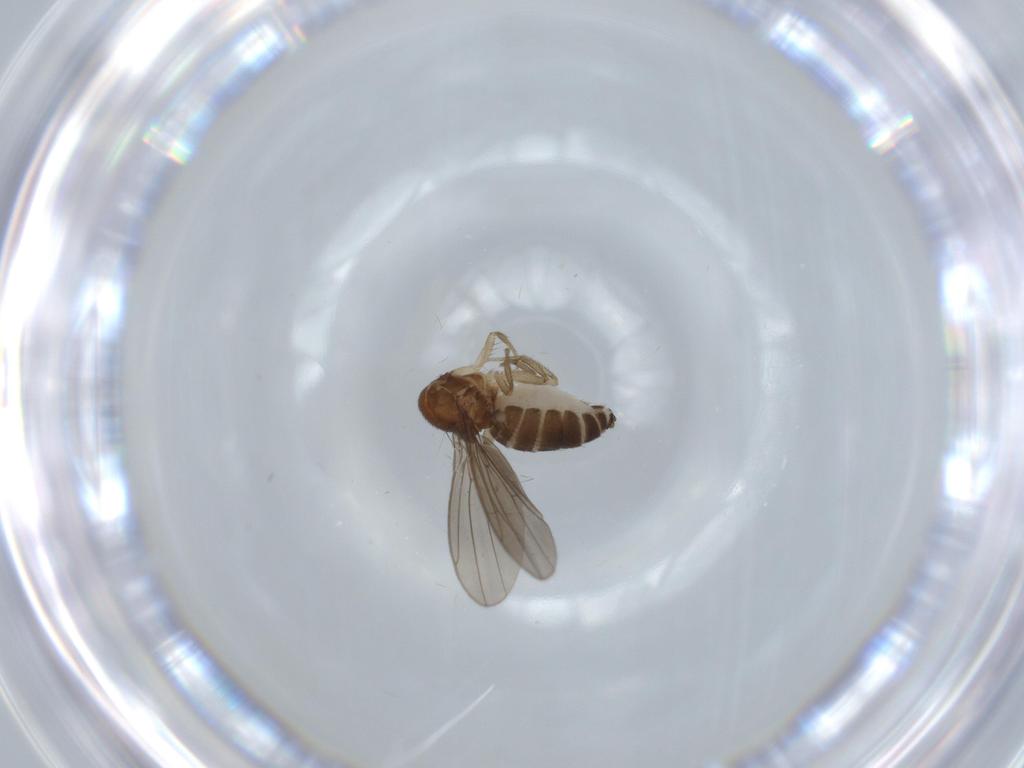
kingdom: Animalia
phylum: Arthropoda
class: Insecta
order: Diptera
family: Drosophilidae
